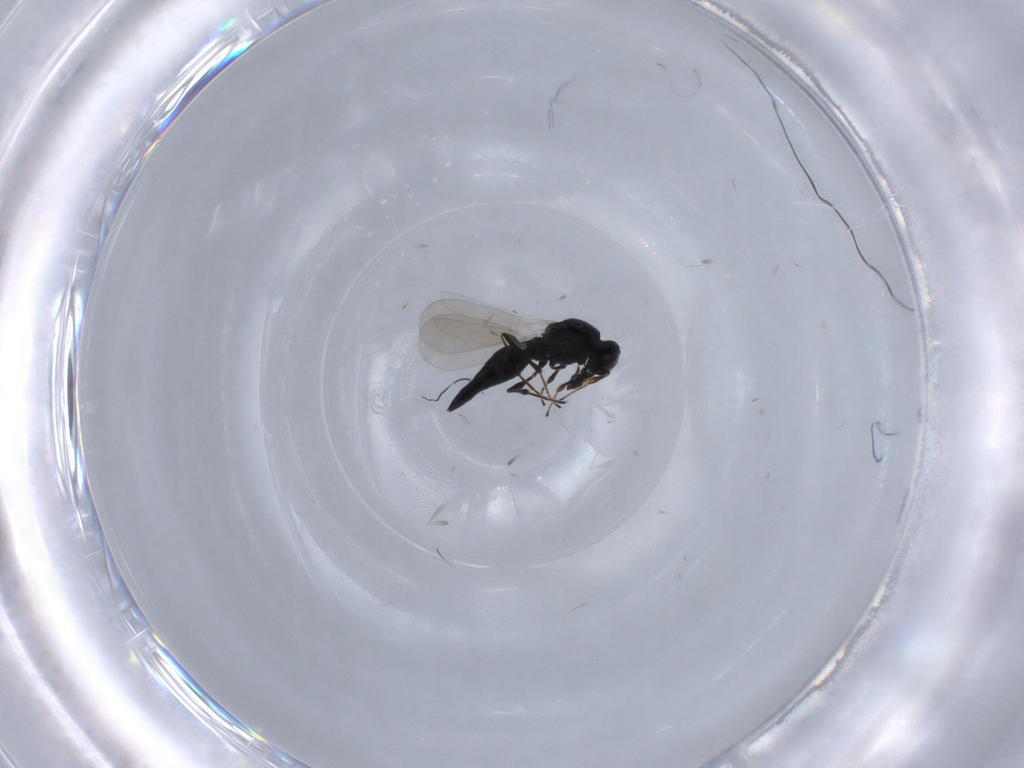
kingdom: Animalia
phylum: Arthropoda
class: Insecta
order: Hymenoptera
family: Platygastridae
